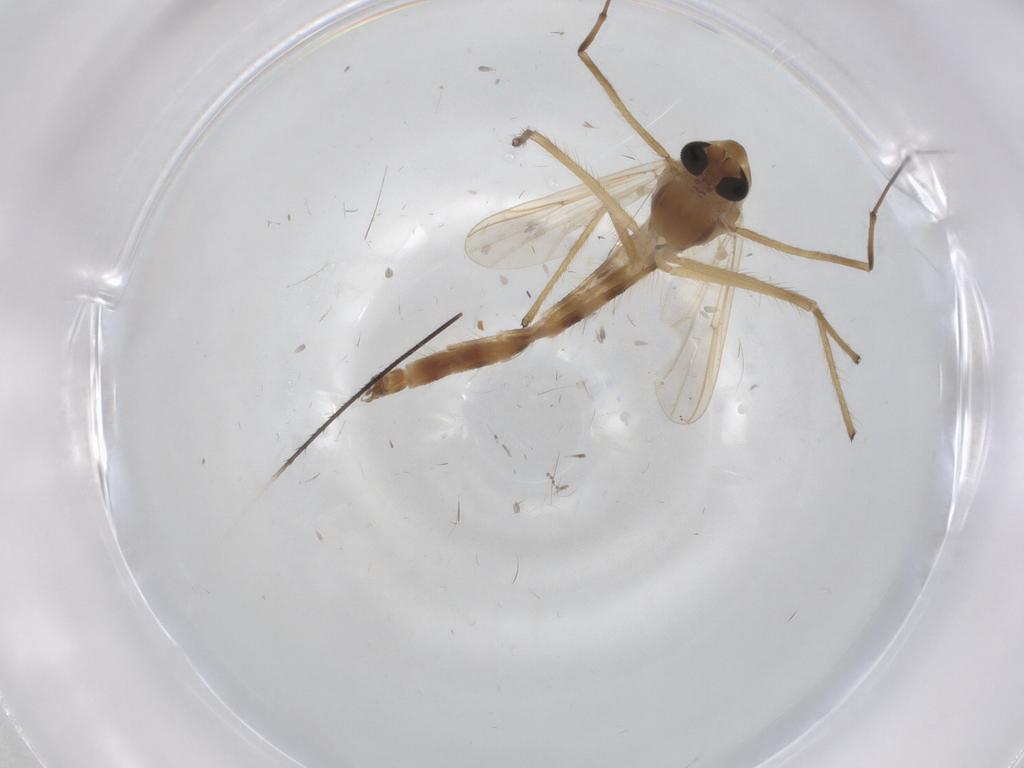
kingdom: Animalia
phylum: Arthropoda
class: Insecta
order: Diptera
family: Chironomidae
